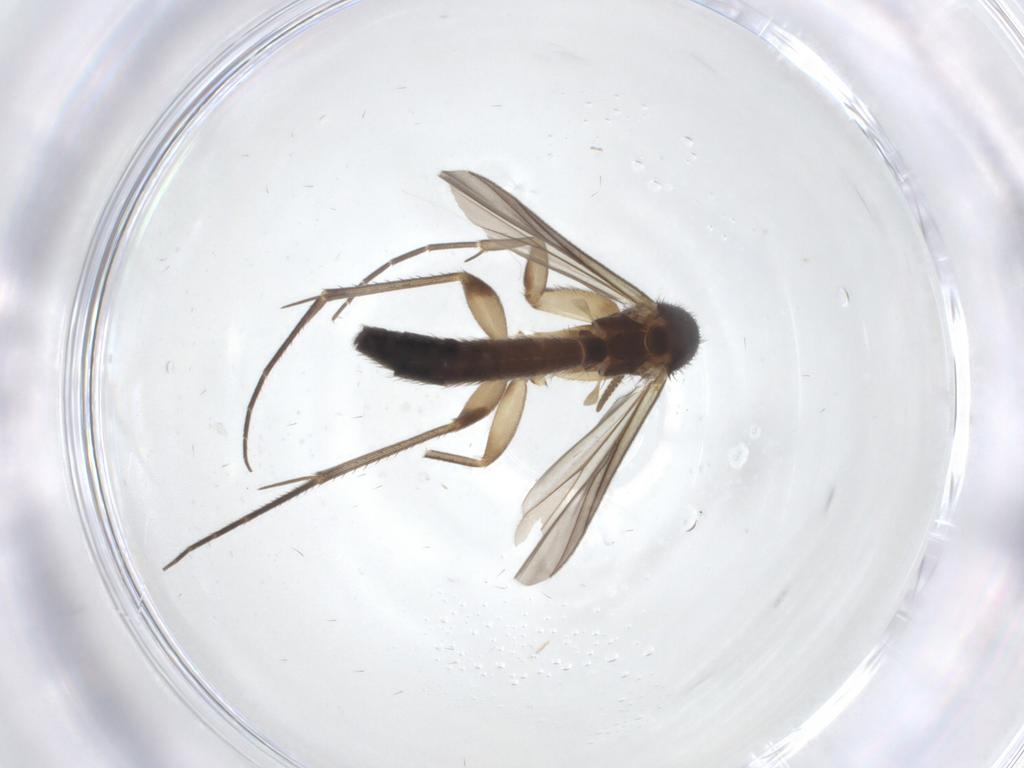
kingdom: Animalia
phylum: Arthropoda
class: Insecta
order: Diptera
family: Mycetophilidae
